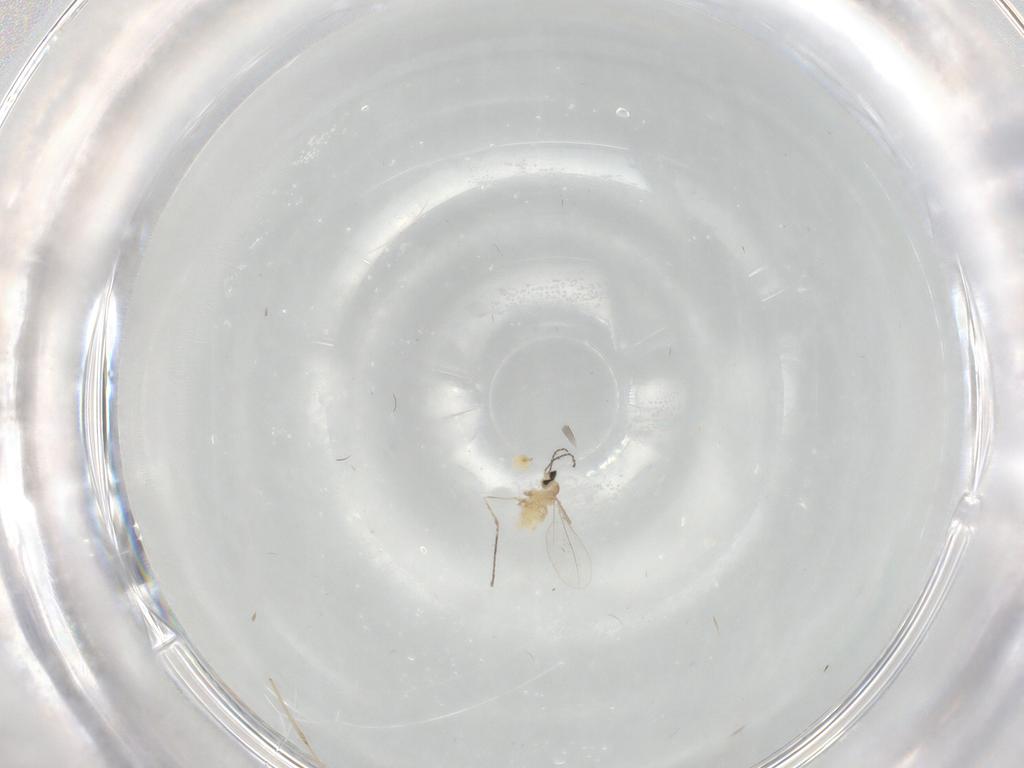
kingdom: Animalia
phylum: Arthropoda
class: Insecta
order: Diptera
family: Cecidomyiidae
